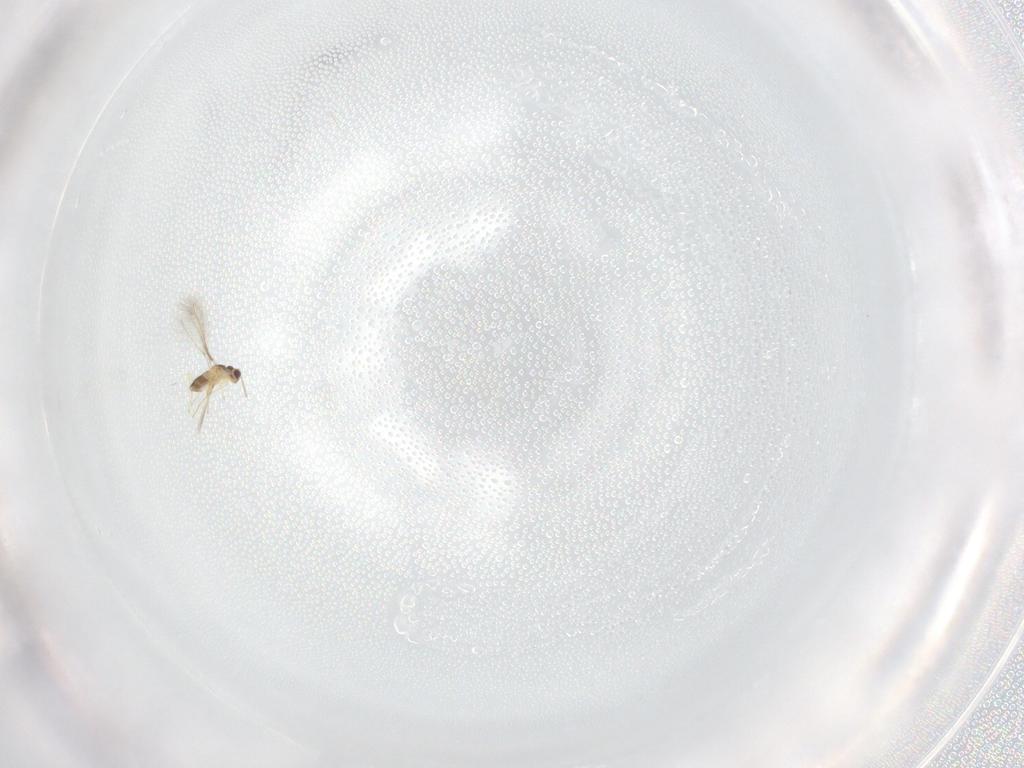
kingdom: Animalia
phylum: Arthropoda
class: Insecta
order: Hymenoptera
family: Mymaridae
